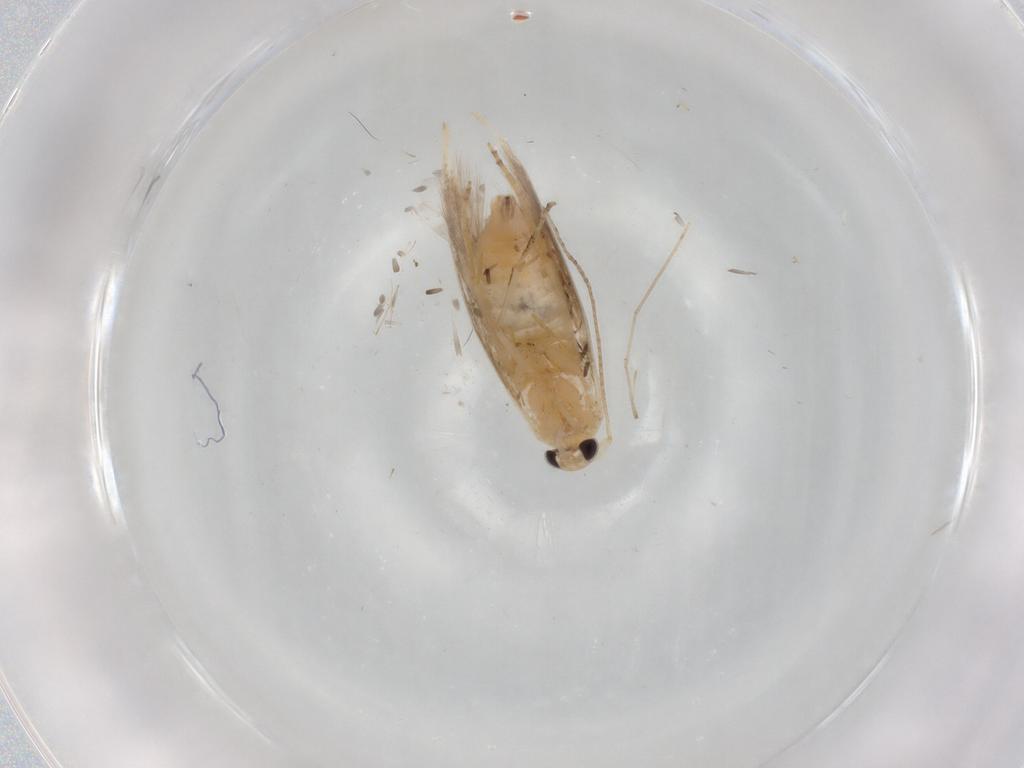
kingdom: Animalia
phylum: Arthropoda
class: Insecta
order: Lepidoptera
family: Bucculatricidae
